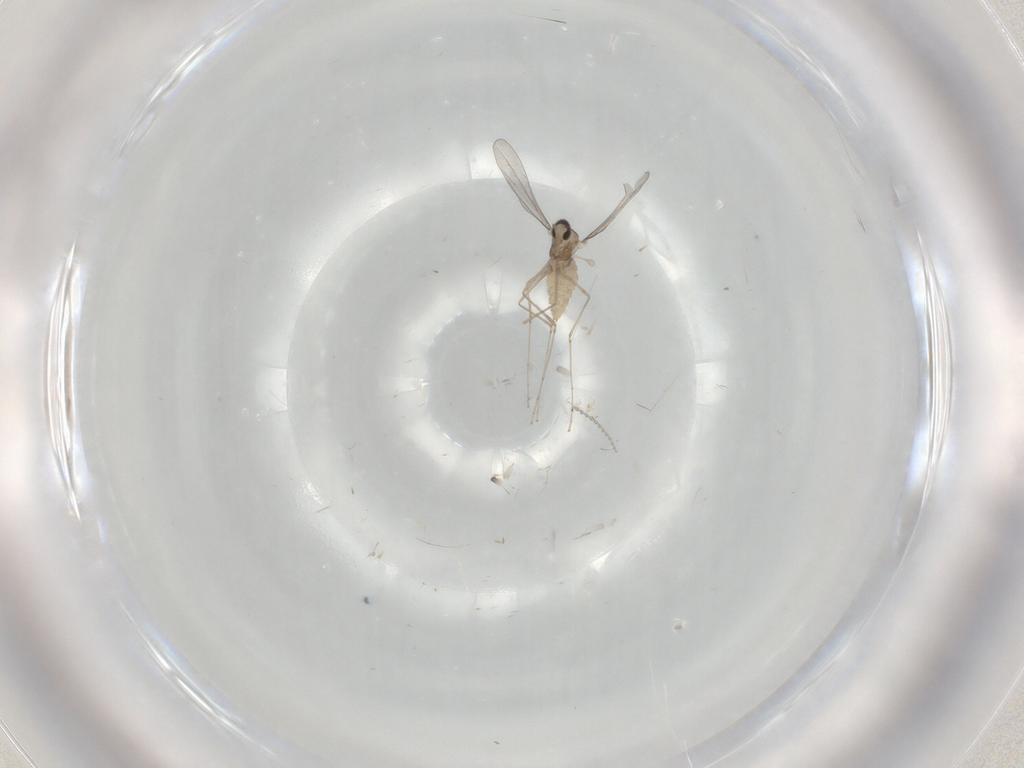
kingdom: Animalia
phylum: Arthropoda
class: Insecta
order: Diptera
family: Cecidomyiidae
